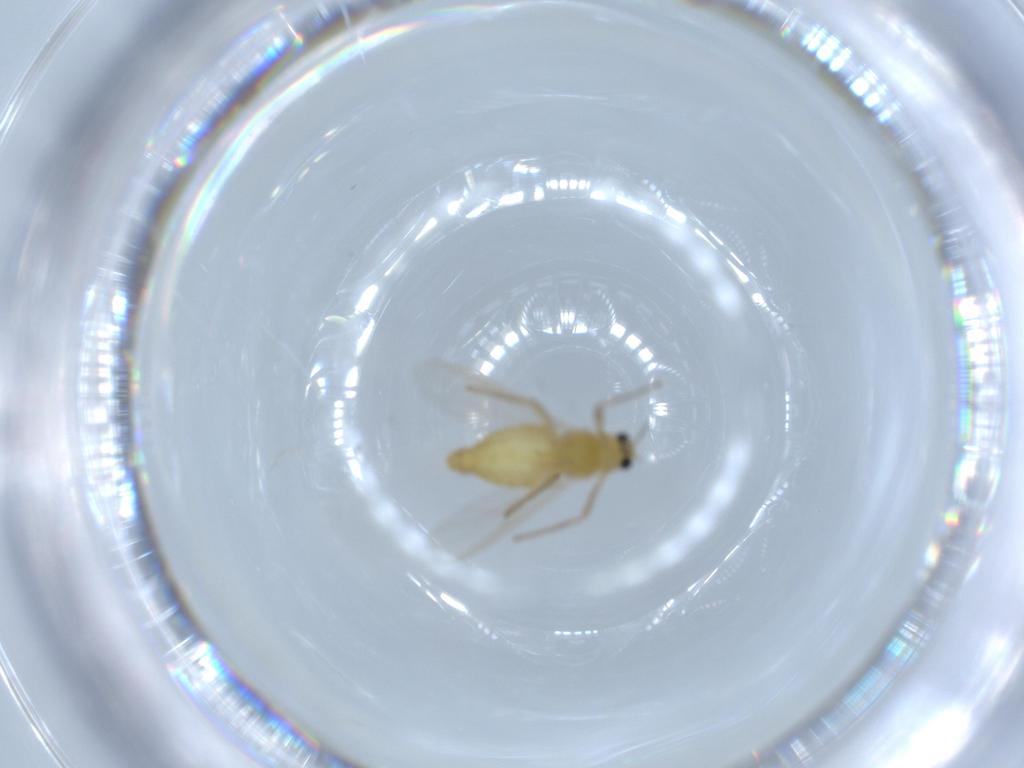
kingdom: Animalia
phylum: Arthropoda
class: Insecta
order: Diptera
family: Chironomidae
